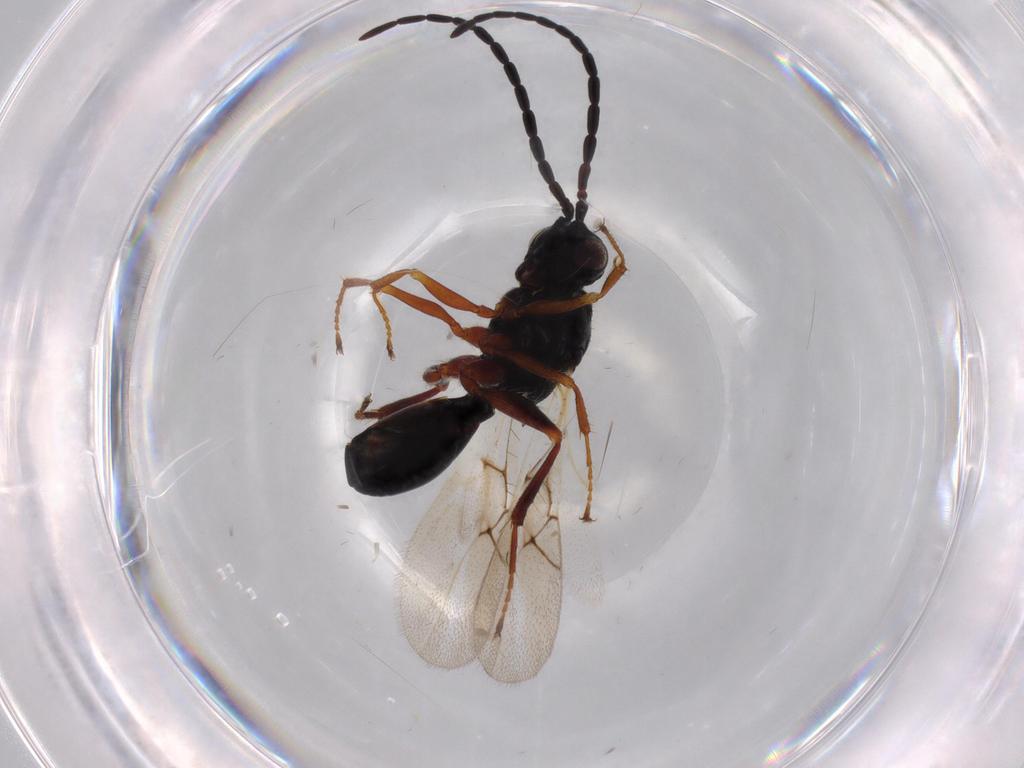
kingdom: Animalia
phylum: Arthropoda
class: Insecta
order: Hymenoptera
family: Figitidae
